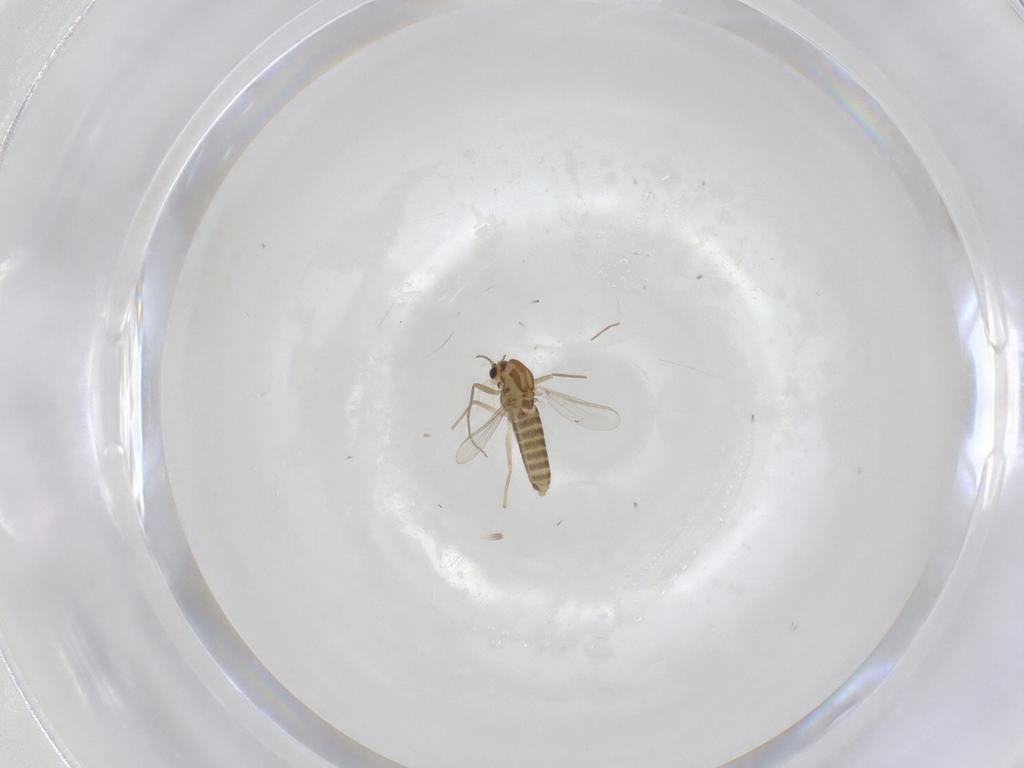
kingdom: Animalia
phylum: Arthropoda
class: Insecta
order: Diptera
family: Chironomidae
